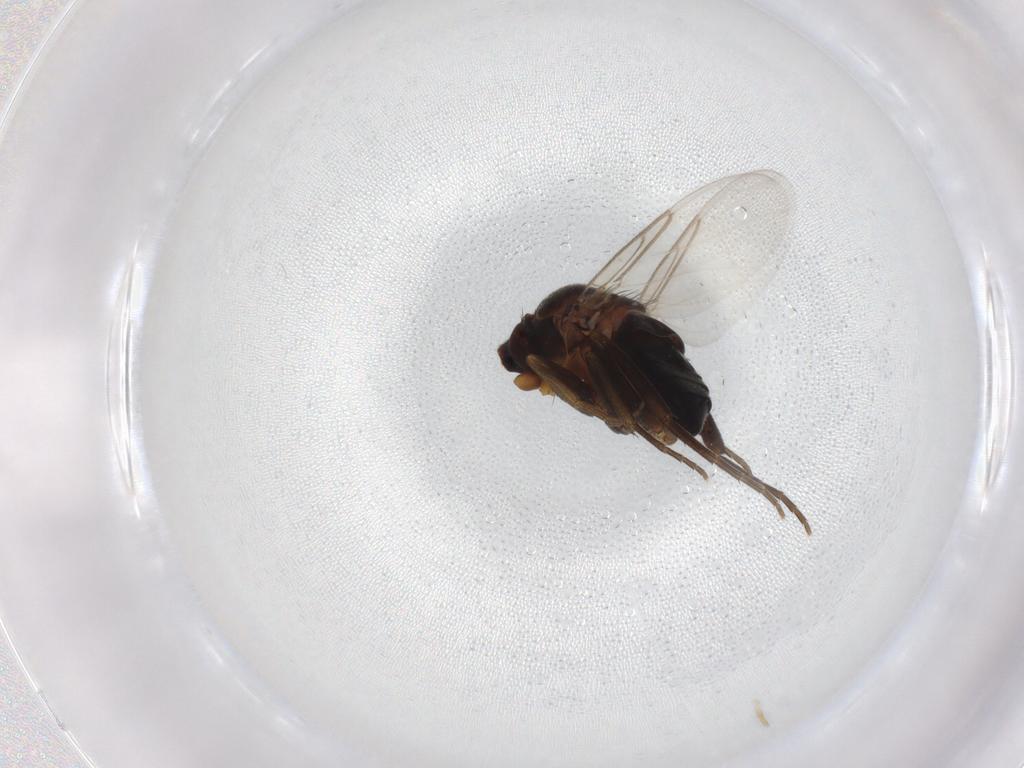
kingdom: Animalia
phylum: Arthropoda
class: Insecta
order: Diptera
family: Phoridae
